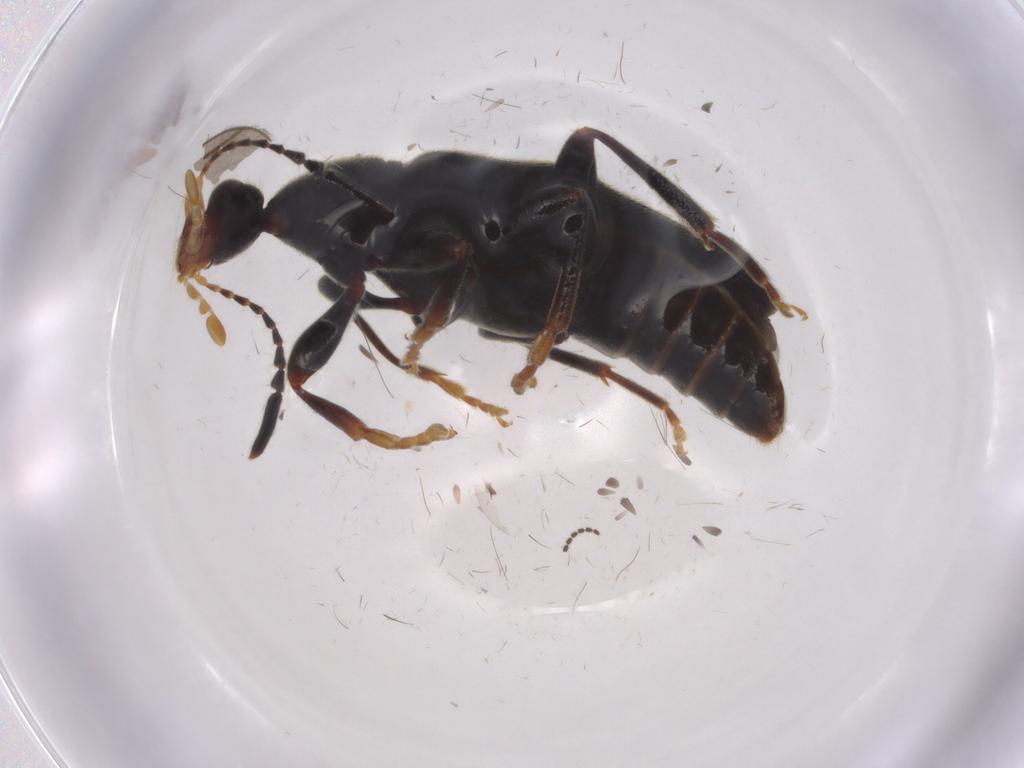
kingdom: Animalia
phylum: Arthropoda
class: Insecta
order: Coleoptera
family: Anthicidae
